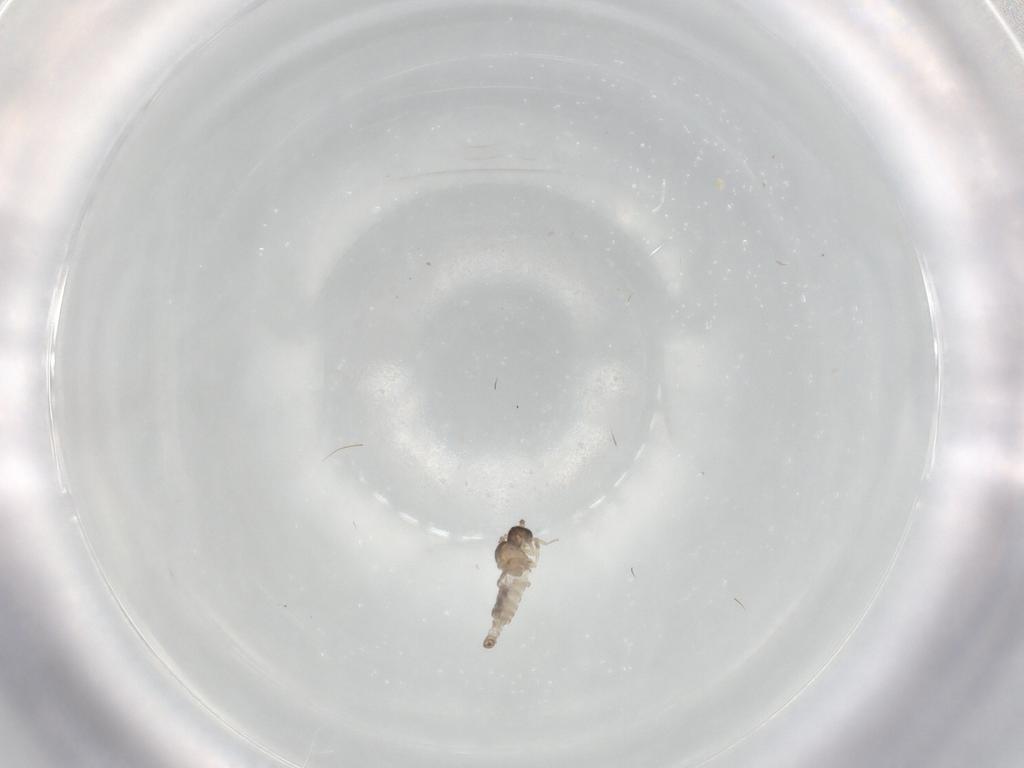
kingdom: Animalia
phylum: Arthropoda
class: Insecta
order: Diptera
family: Cecidomyiidae
